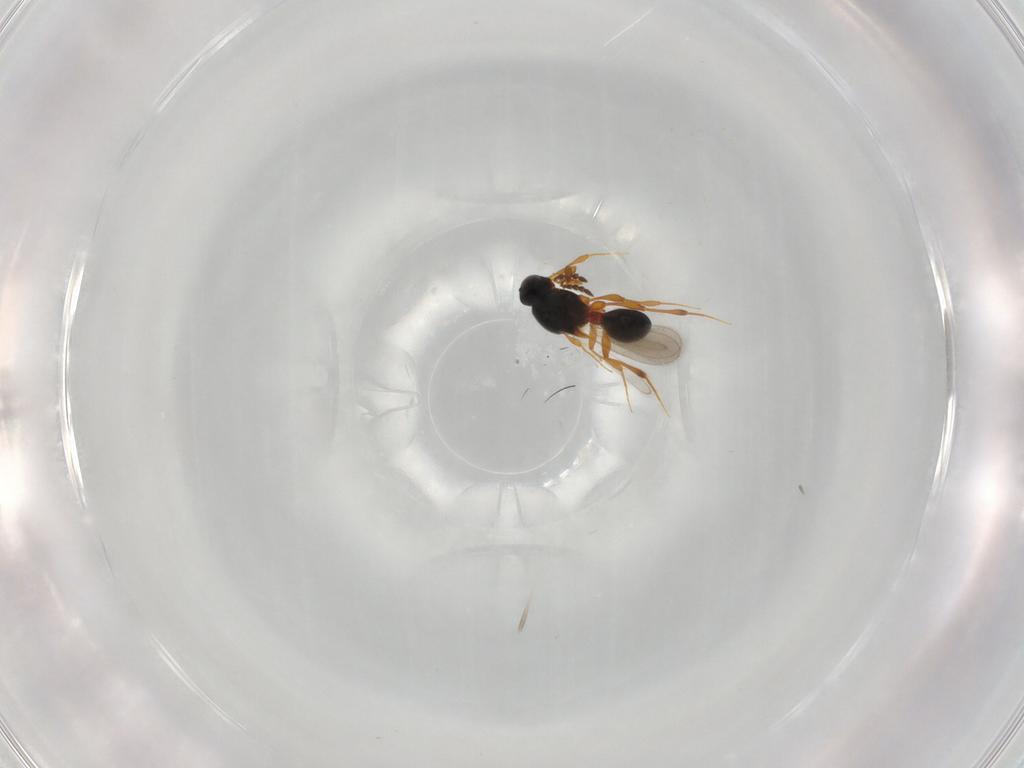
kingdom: Animalia
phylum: Arthropoda
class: Insecta
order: Hymenoptera
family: Platygastridae
